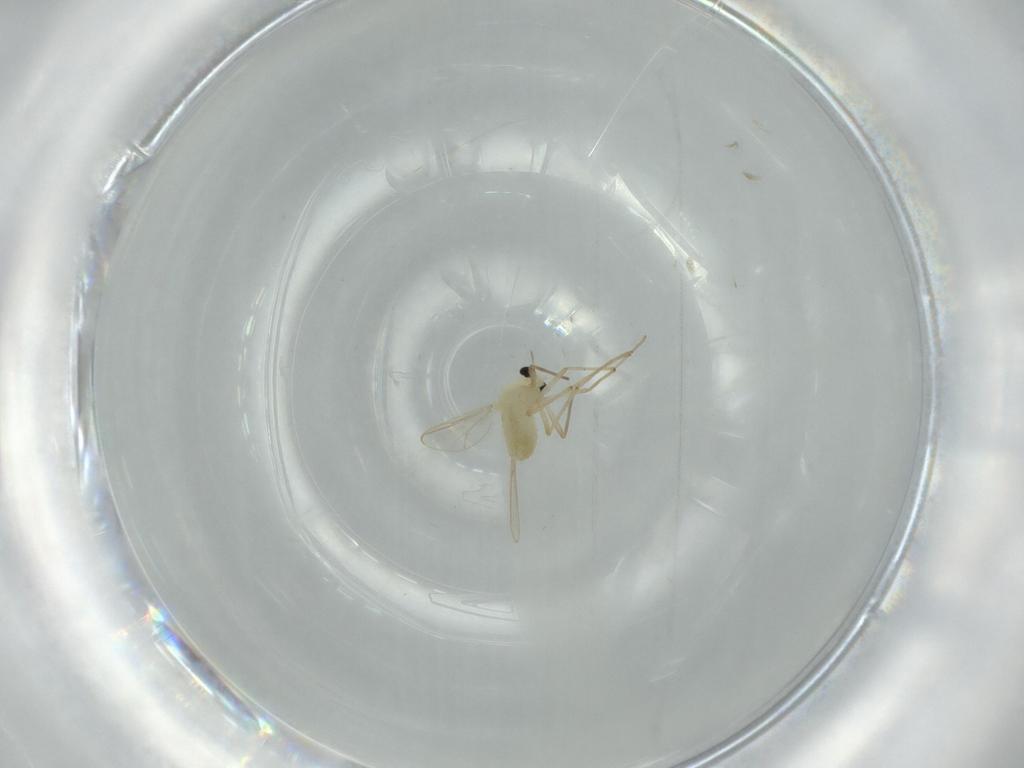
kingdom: Animalia
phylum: Arthropoda
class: Insecta
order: Diptera
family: Chironomidae
